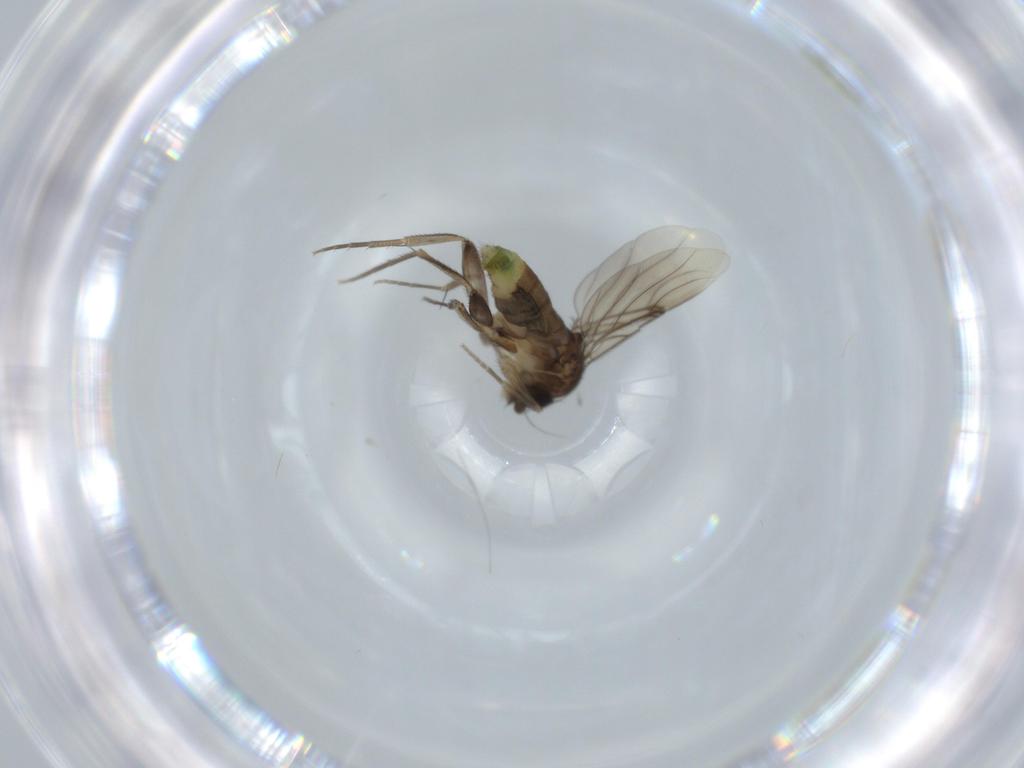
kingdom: Animalia
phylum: Arthropoda
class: Insecta
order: Diptera
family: Phoridae
